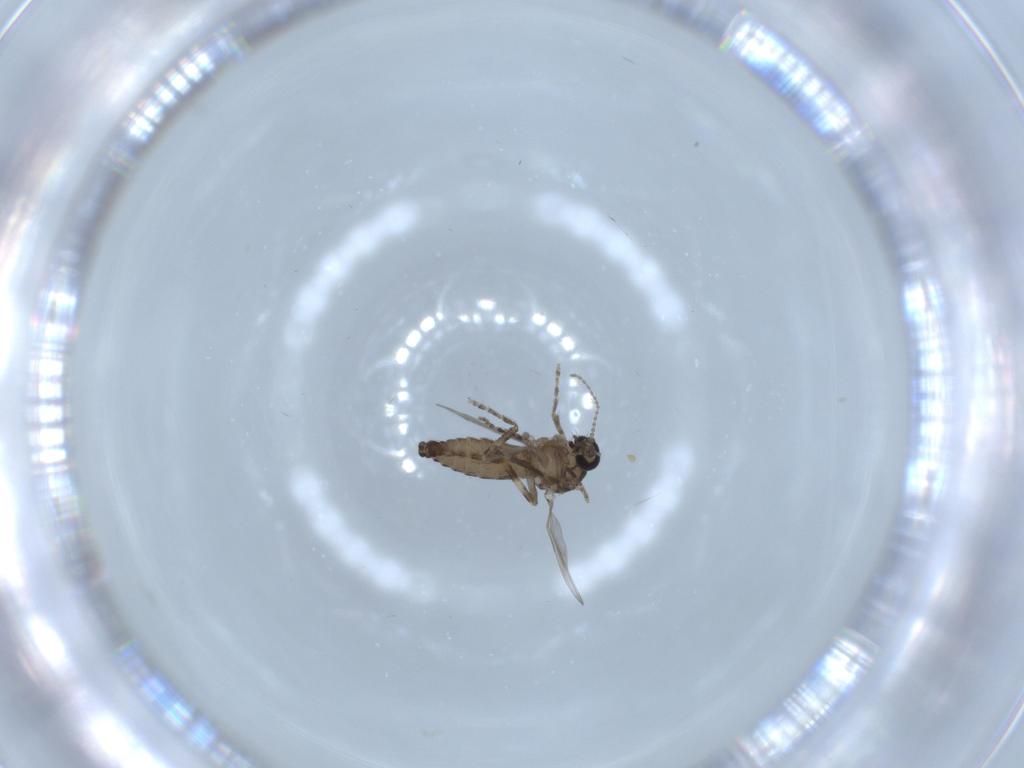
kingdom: Animalia
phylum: Arthropoda
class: Insecta
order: Diptera
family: Ceratopogonidae
